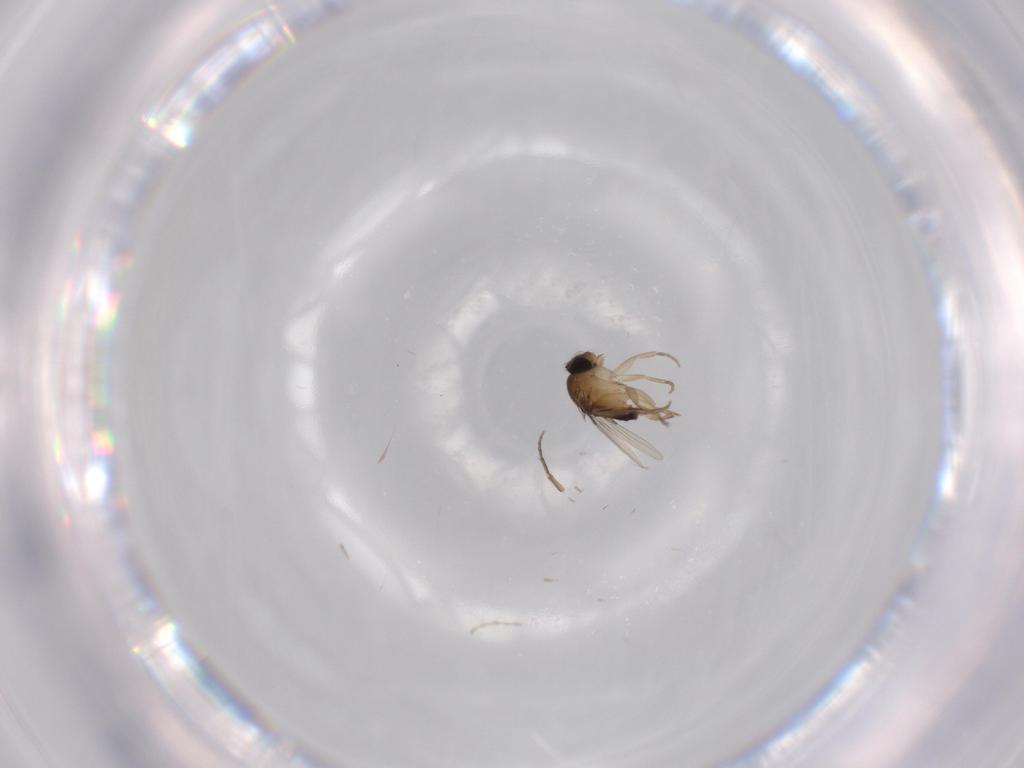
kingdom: Animalia
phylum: Arthropoda
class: Insecta
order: Diptera
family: Phoridae
